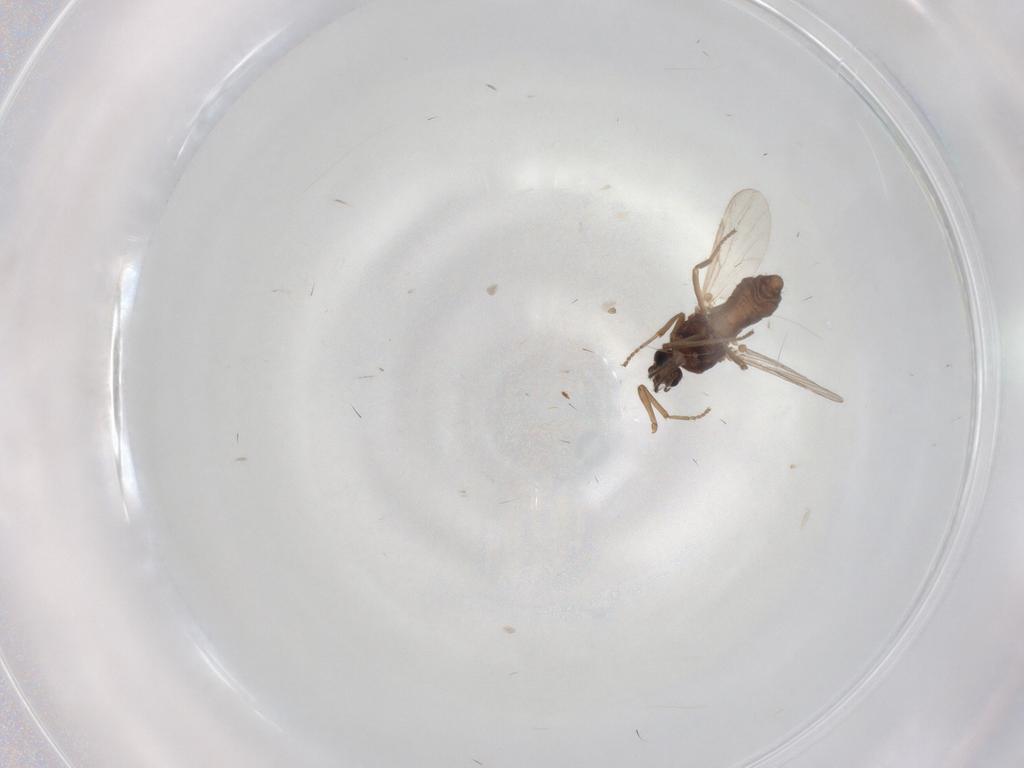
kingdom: Animalia
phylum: Arthropoda
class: Insecta
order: Diptera
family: Ceratopogonidae
